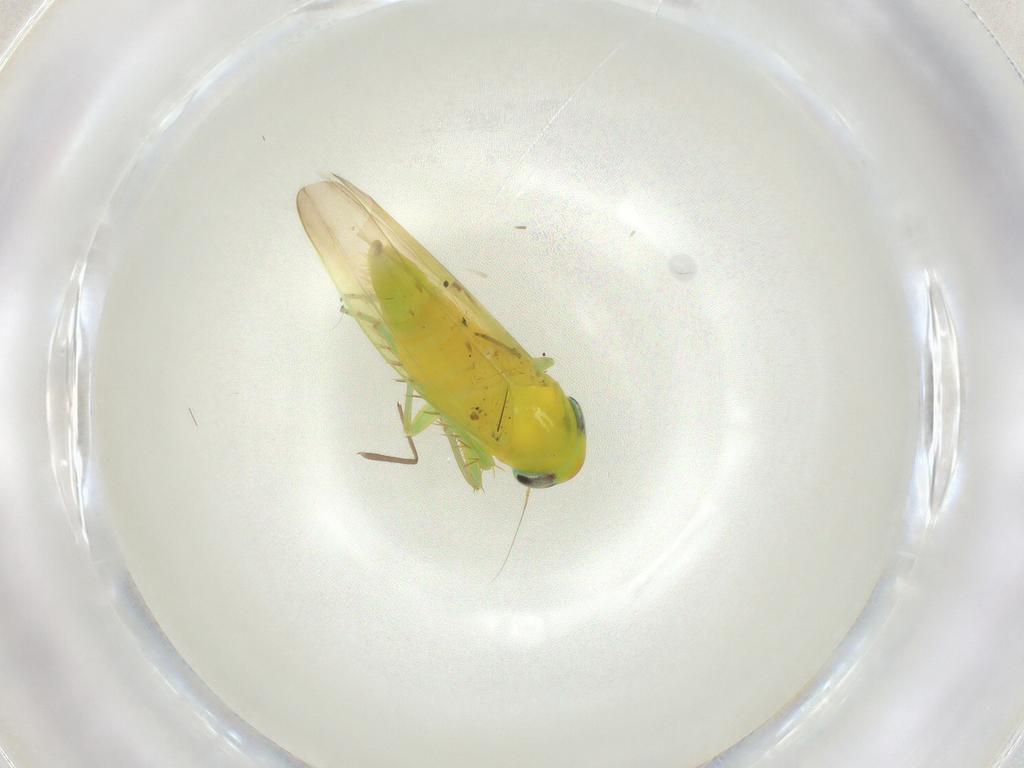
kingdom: Animalia
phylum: Arthropoda
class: Insecta
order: Hemiptera
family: Cicadellidae
